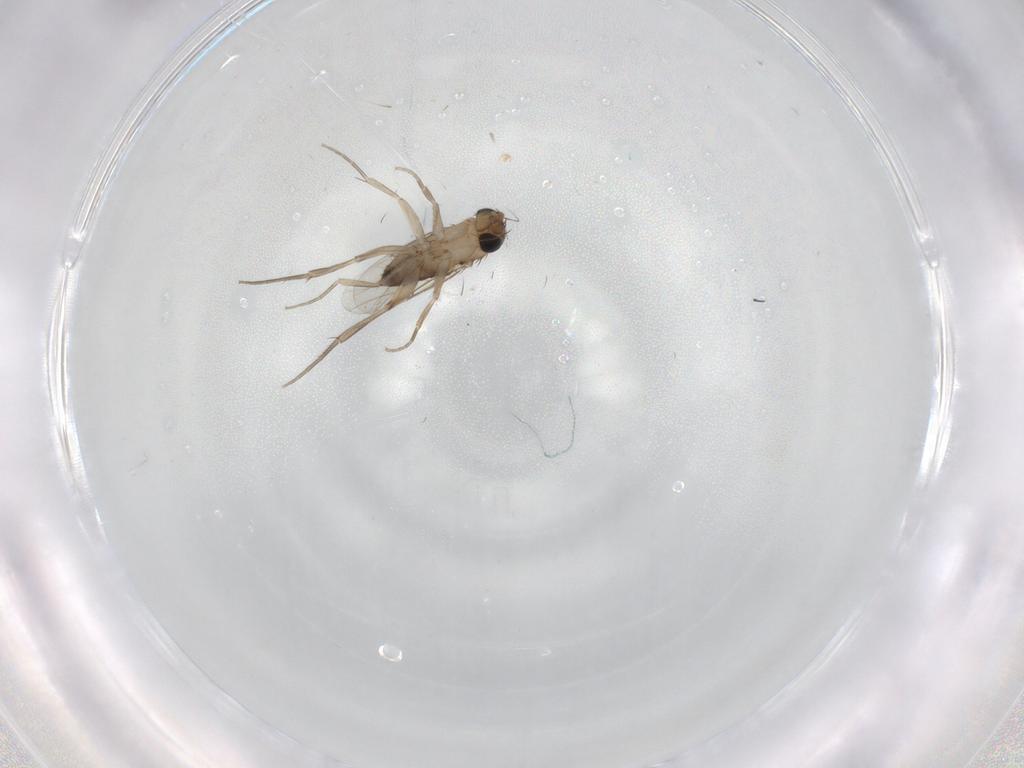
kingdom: Animalia
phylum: Arthropoda
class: Insecta
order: Diptera
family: Phoridae
